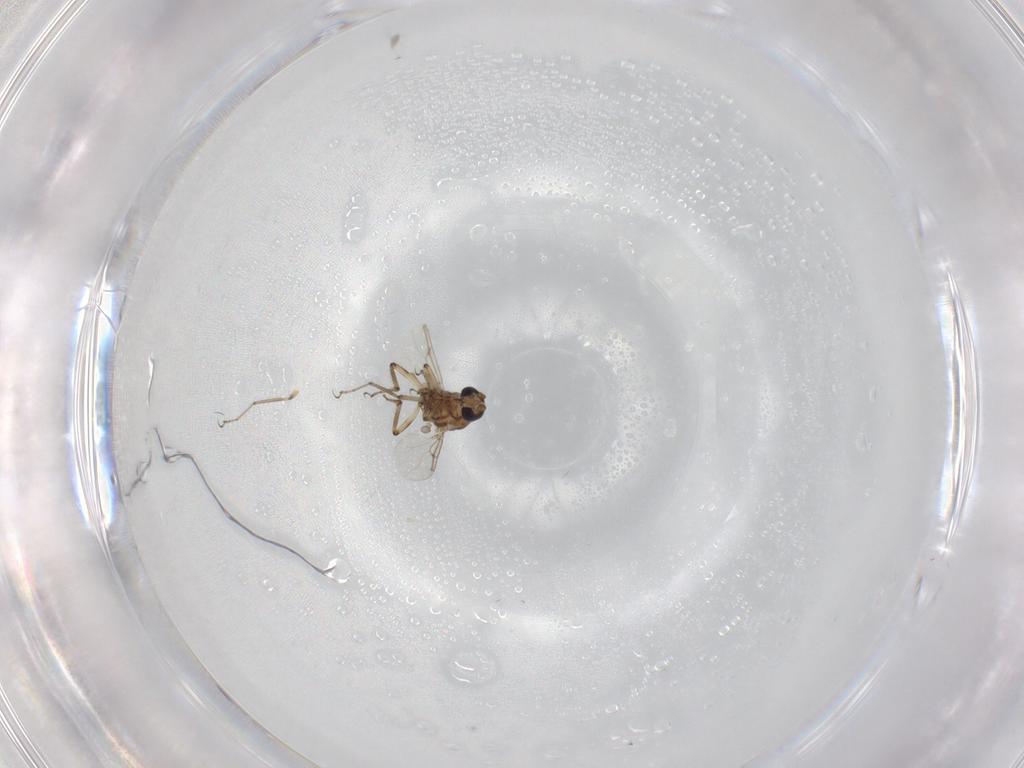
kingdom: Animalia
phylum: Arthropoda
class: Insecta
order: Diptera
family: Ceratopogonidae
